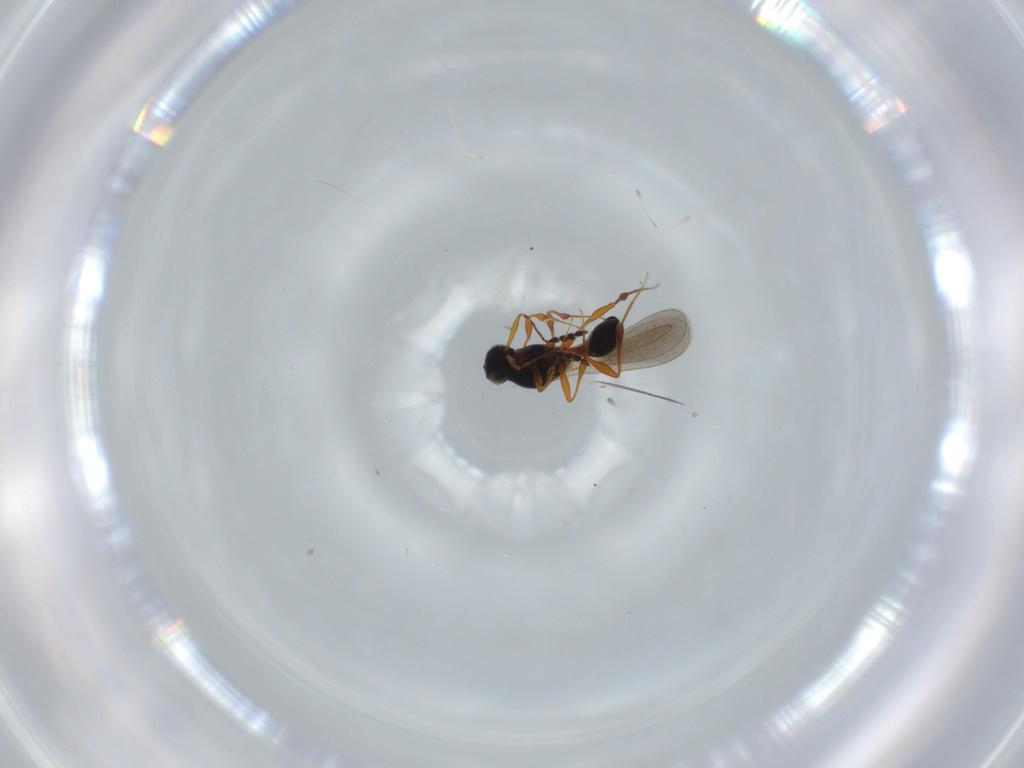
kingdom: Animalia
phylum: Arthropoda
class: Insecta
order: Hymenoptera
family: Platygastridae
